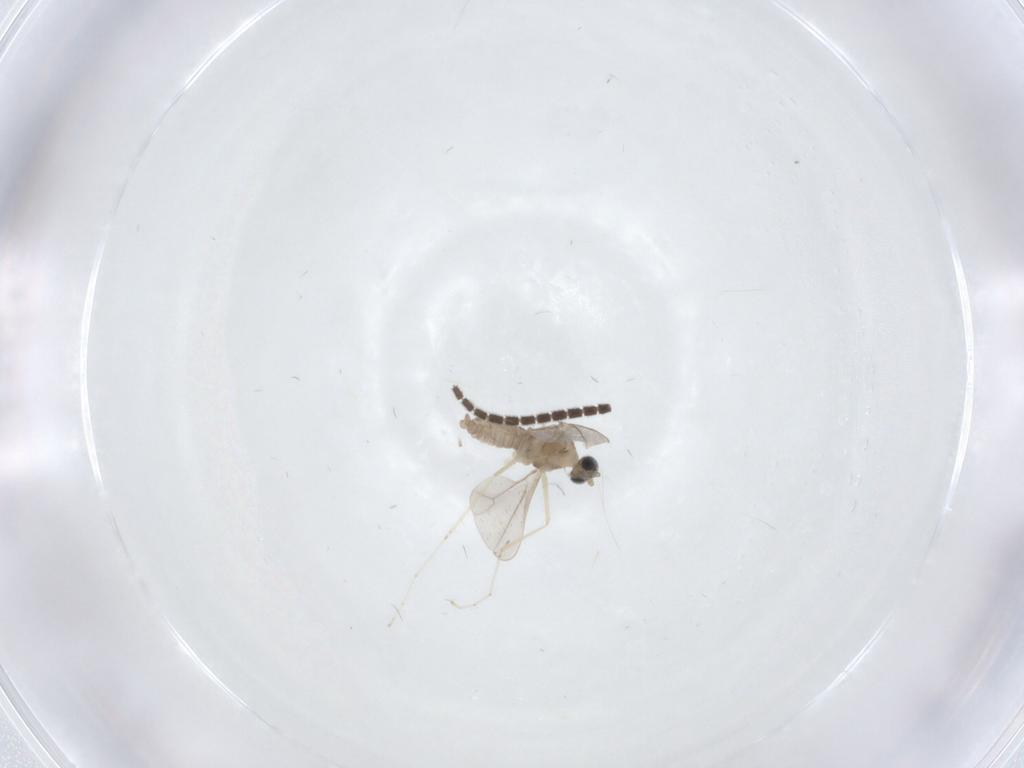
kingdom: Animalia
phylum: Arthropoda
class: Insecta
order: Diptera
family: Cecidomyiidae
